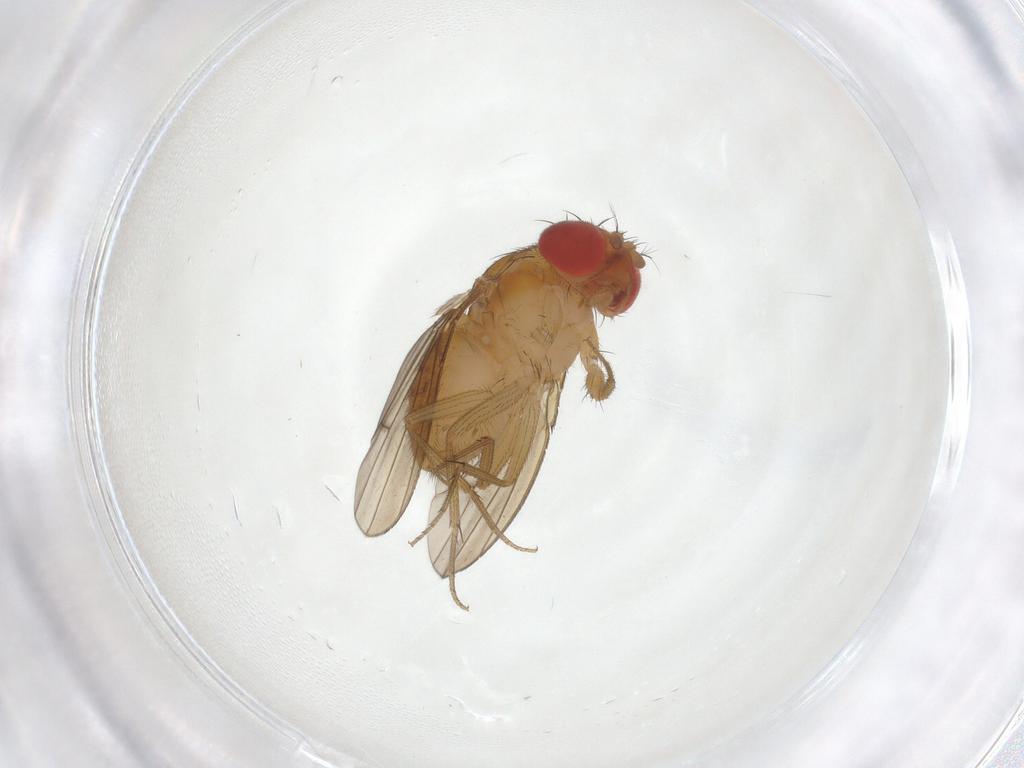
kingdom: Animalia
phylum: Arthropoda
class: Insecta
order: Diptera
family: Drosophilidae
